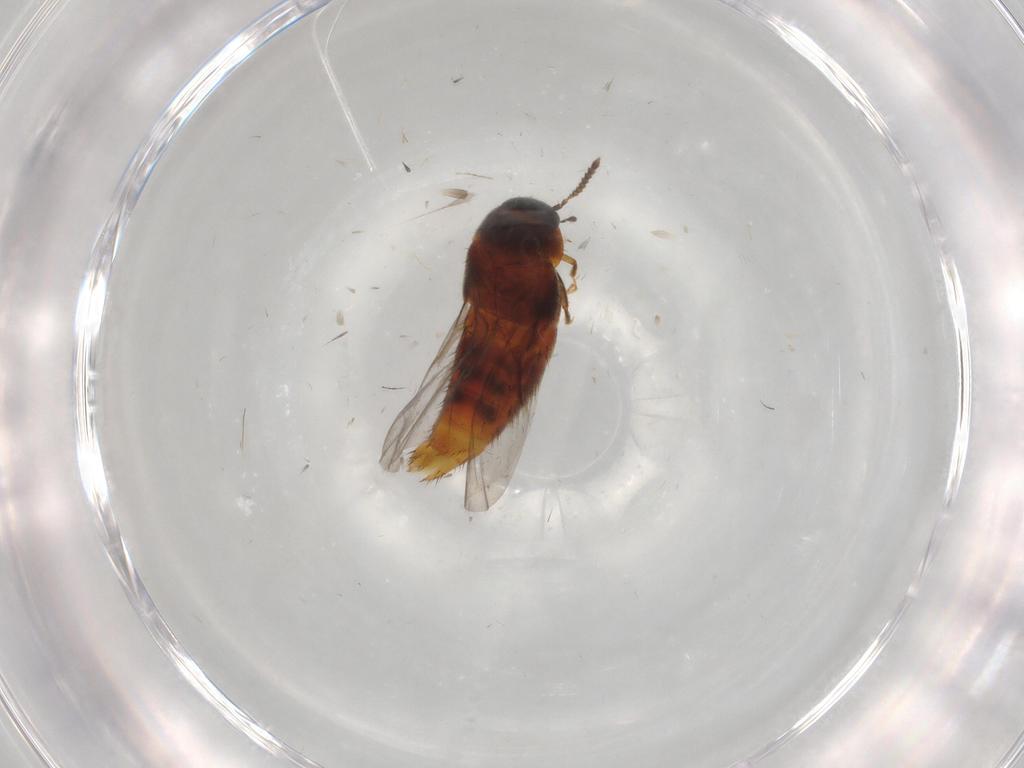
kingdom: Animalia
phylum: Arthropoda
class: Insecta
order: Coleoptera
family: Staphylinidae
